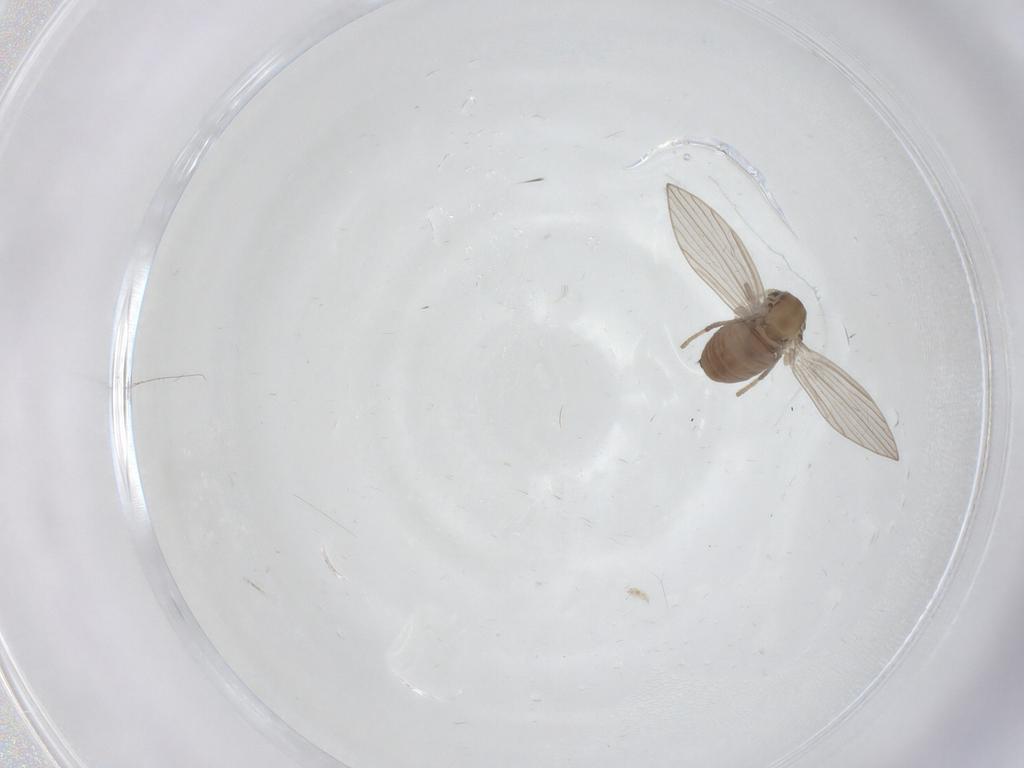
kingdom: Animalia
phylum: Arthropoda
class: Insecta
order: Diptera
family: Psychodidae
